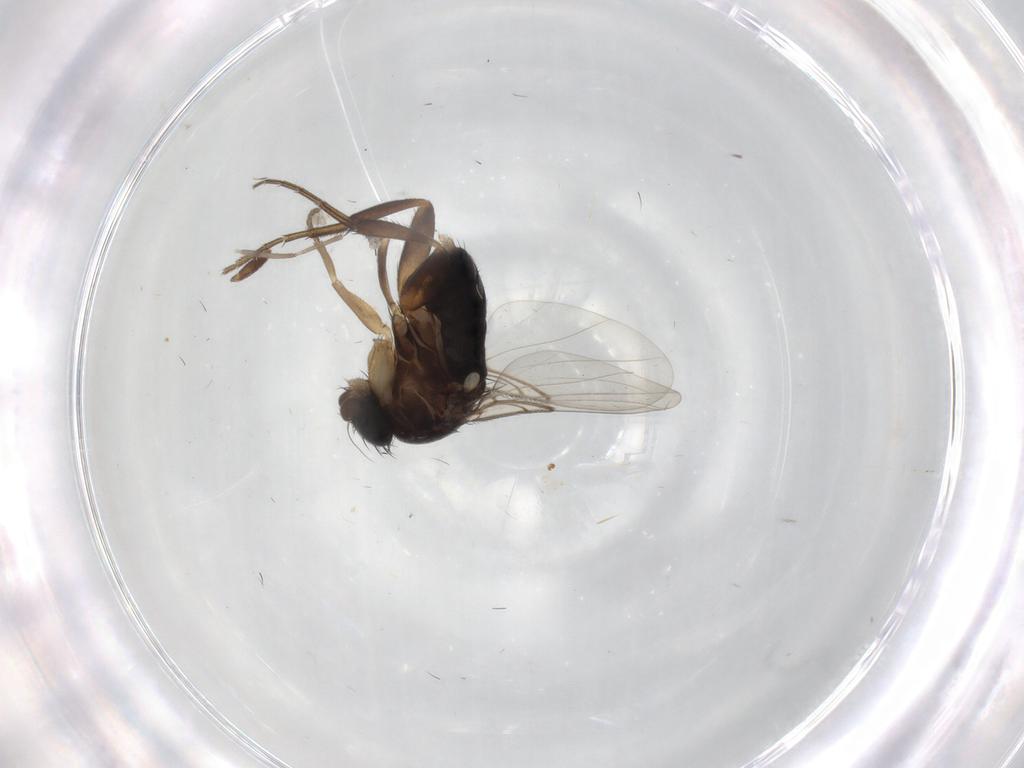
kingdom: Animalia
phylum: Arthropoda
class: Insecta
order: Diptera
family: Phoridae
